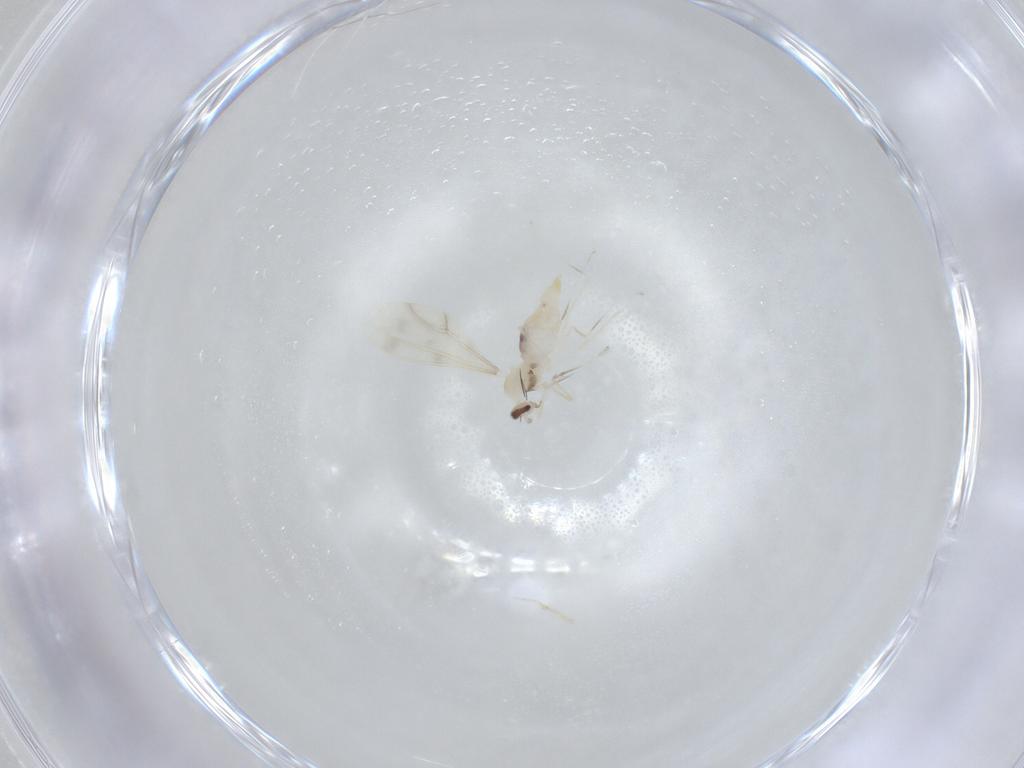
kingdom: Animalia
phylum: Arthropoda
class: Insecta
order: Diptera
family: Cecidomyiidae
